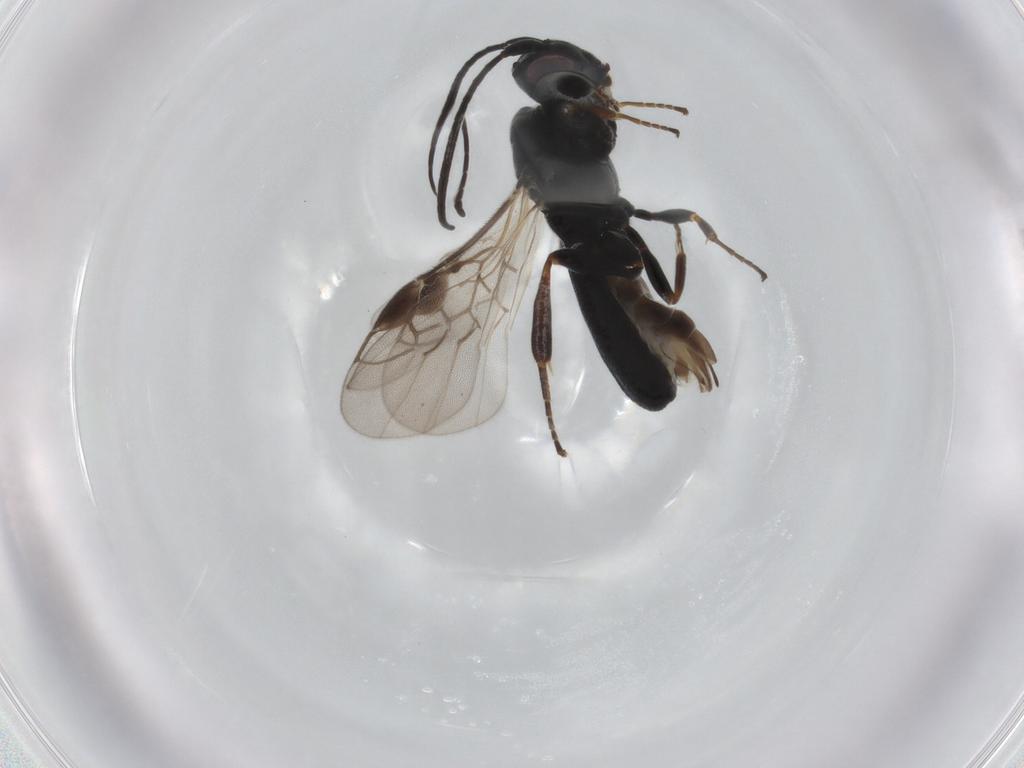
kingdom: Animalia
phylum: Arthropoda
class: Insecta
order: Hymenoptera
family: Braconidae
